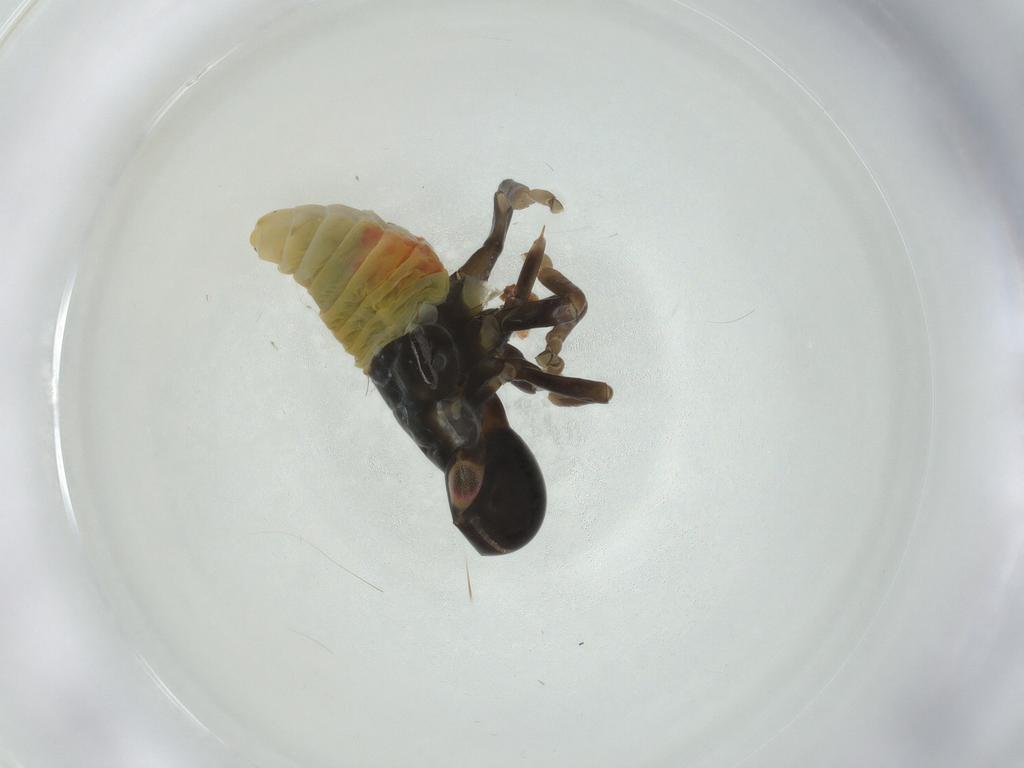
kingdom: Animalia
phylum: Arthropoda
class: Insecta
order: Hemiptera
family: Aphrophoridae
